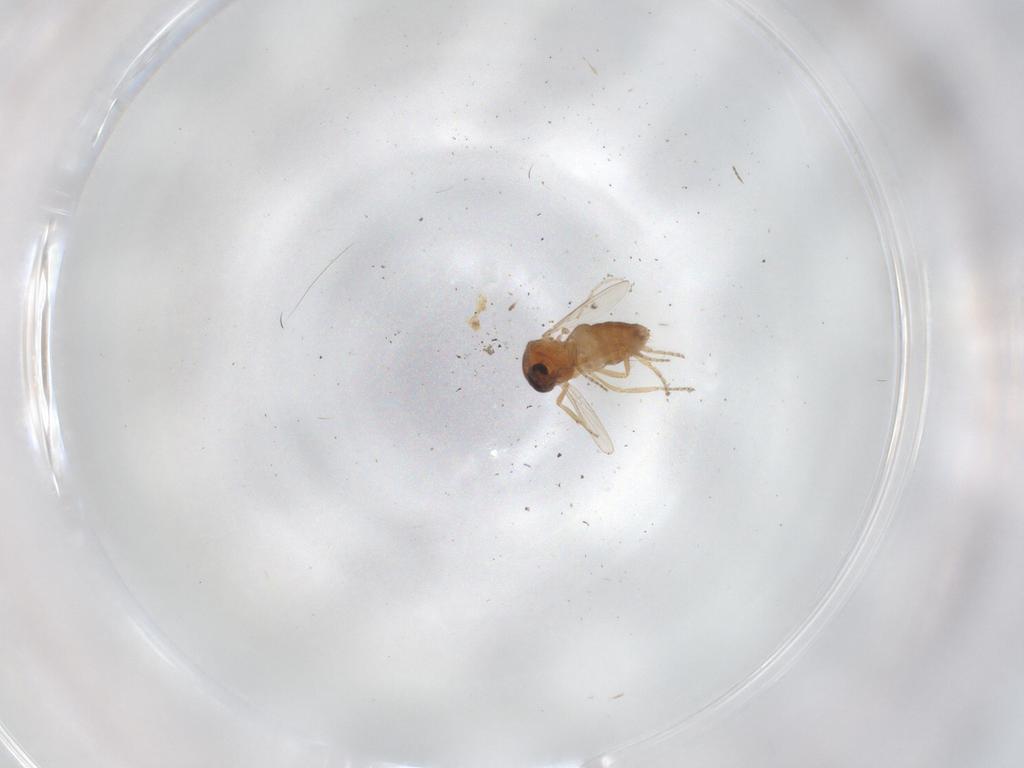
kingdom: Animalia
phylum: Arthropoda
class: Insecta
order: Diptera
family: Ceratopogonidae
